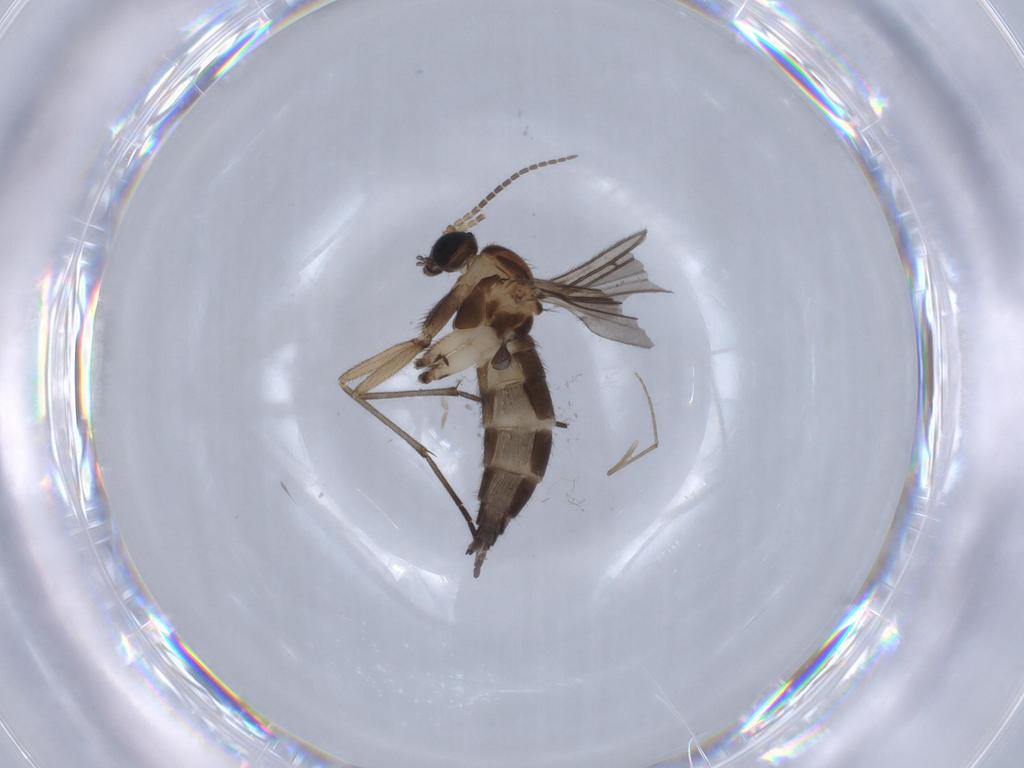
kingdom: Animalia
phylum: Arthropoda
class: Insecta
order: Diptera
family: Sciaridae
